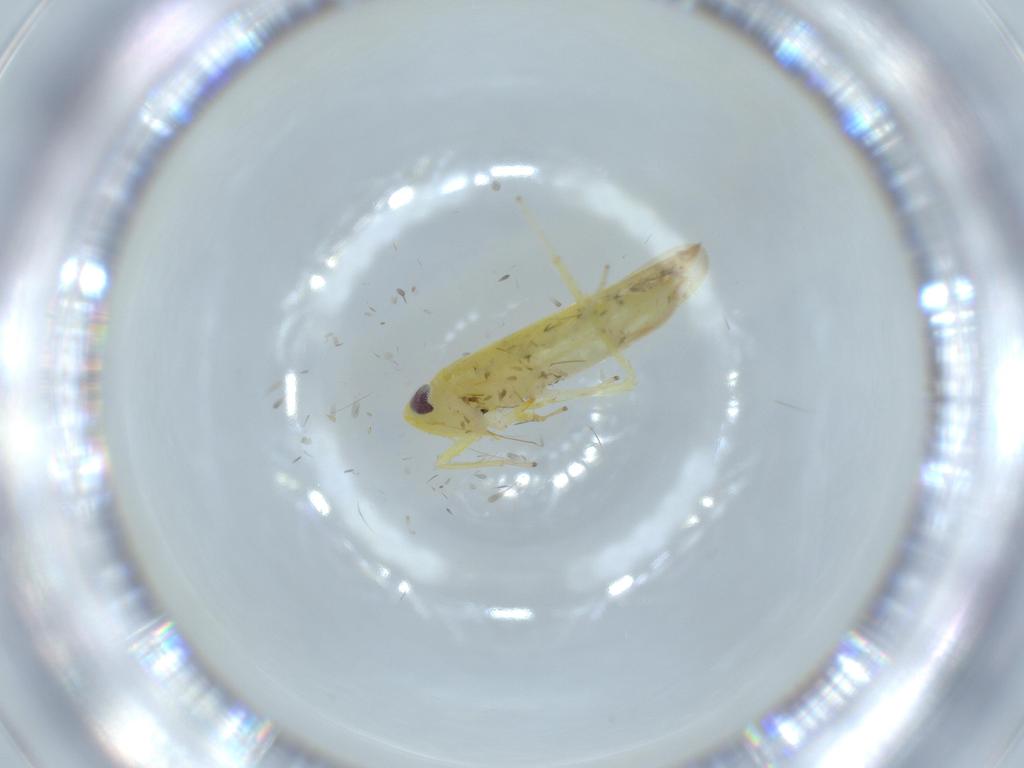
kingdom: Animalia
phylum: Arthropoda
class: Insecta
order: Hemiptera
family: Cicadellidae
